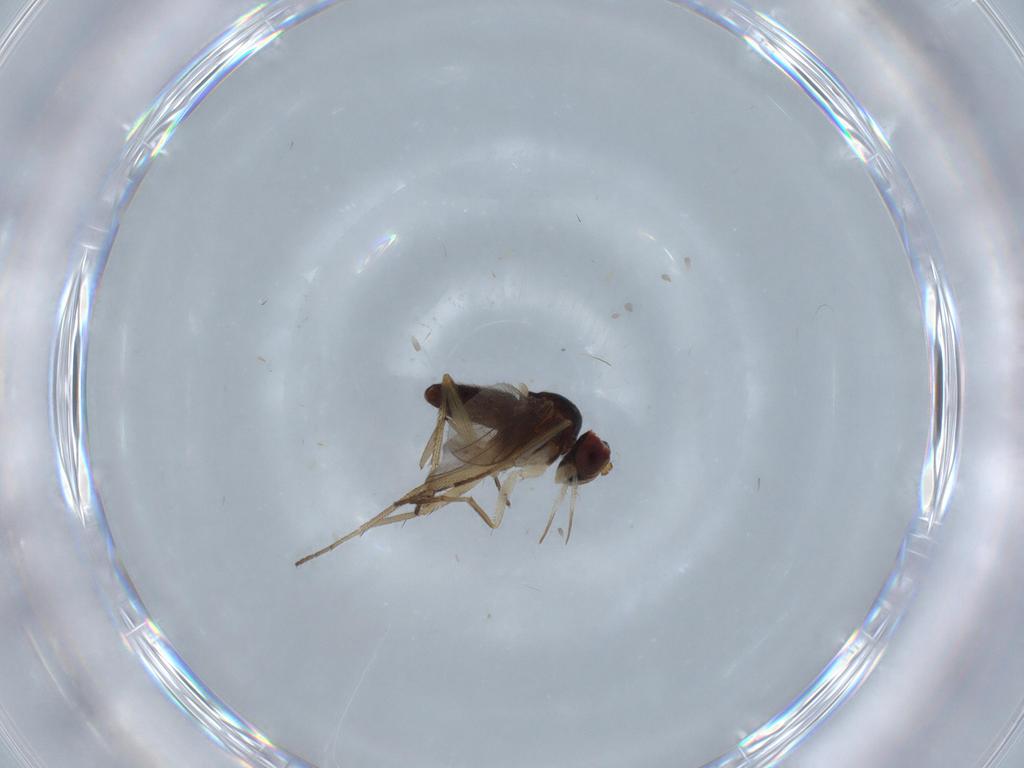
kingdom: Animalia
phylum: Arthropoda
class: Insecta
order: Diptera
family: Dolichopodidae
